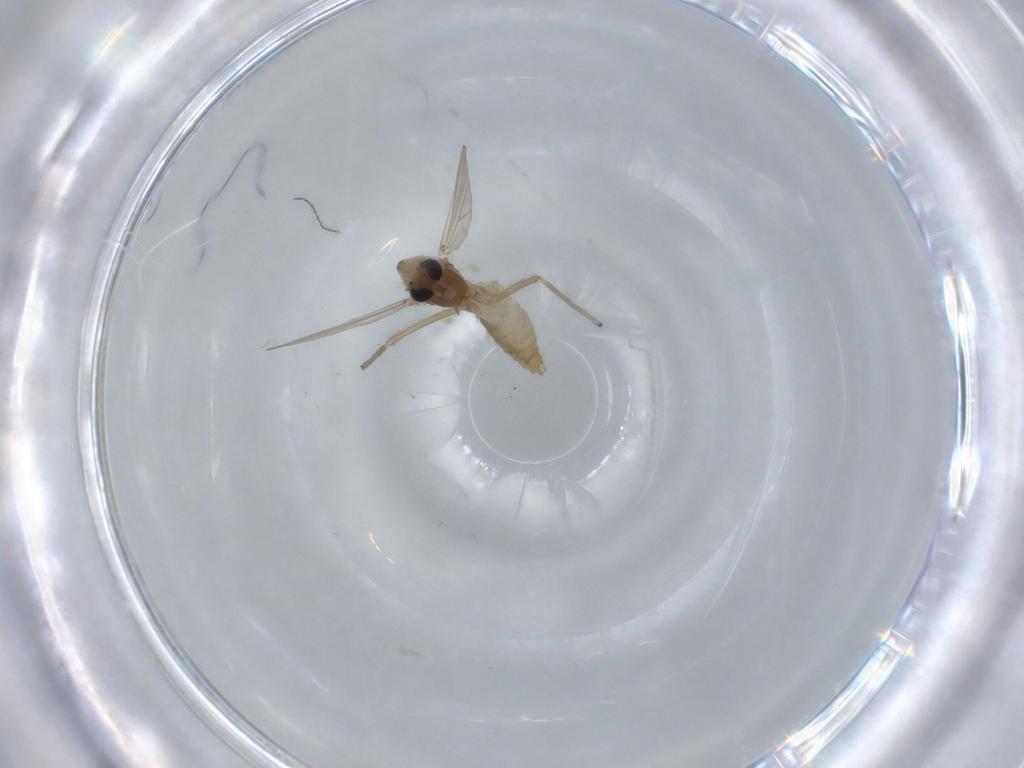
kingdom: Animalia
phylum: Arthropoda
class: Insecta
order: Diptera
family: Chironomidae
